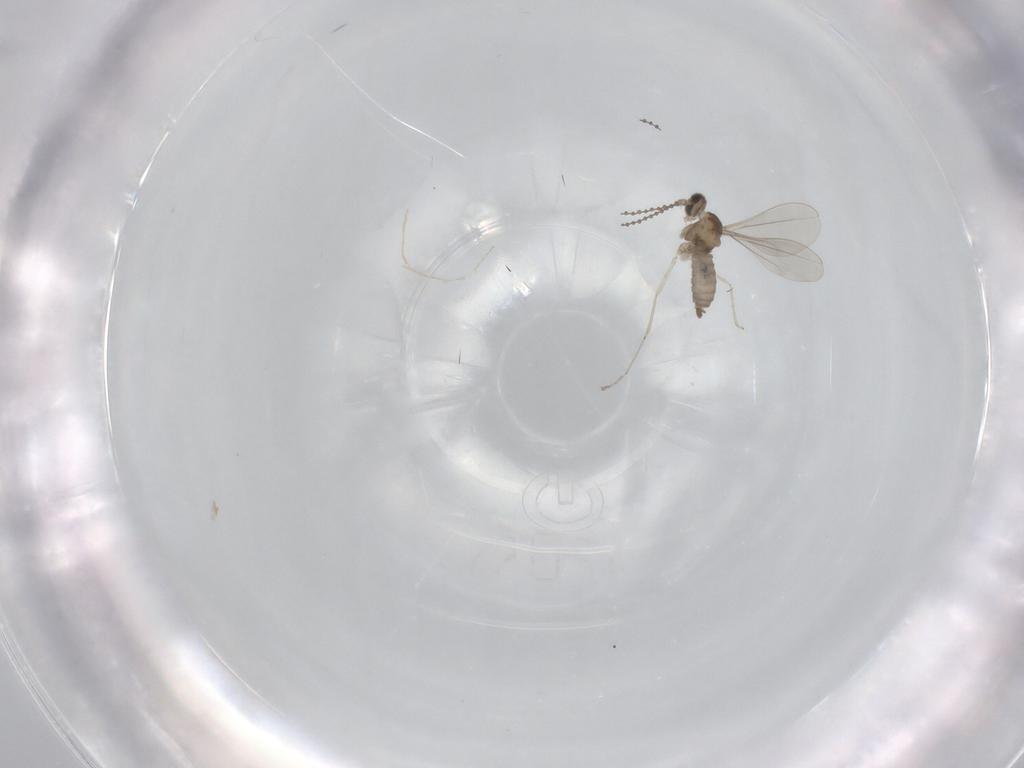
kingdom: Animalia
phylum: Arthropoda
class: Insecta
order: Diptera
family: Cecidomyiidae
